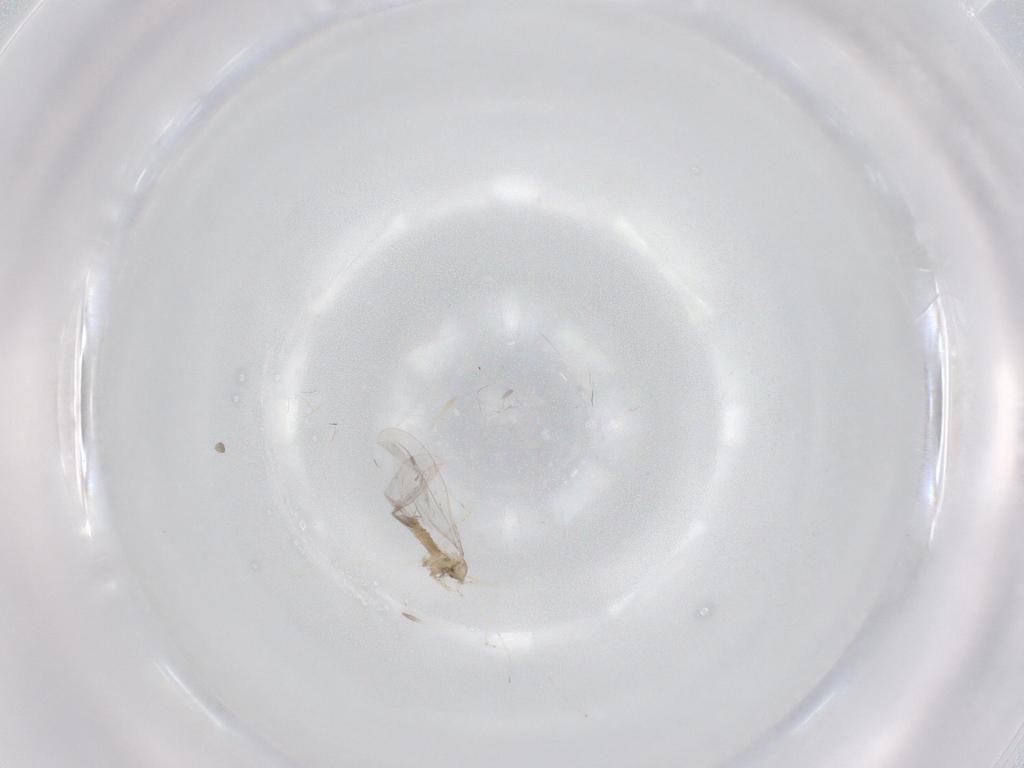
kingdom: Animalia
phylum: Arthropoda
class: Insecta
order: Diptera
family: Cecidomyiidae
